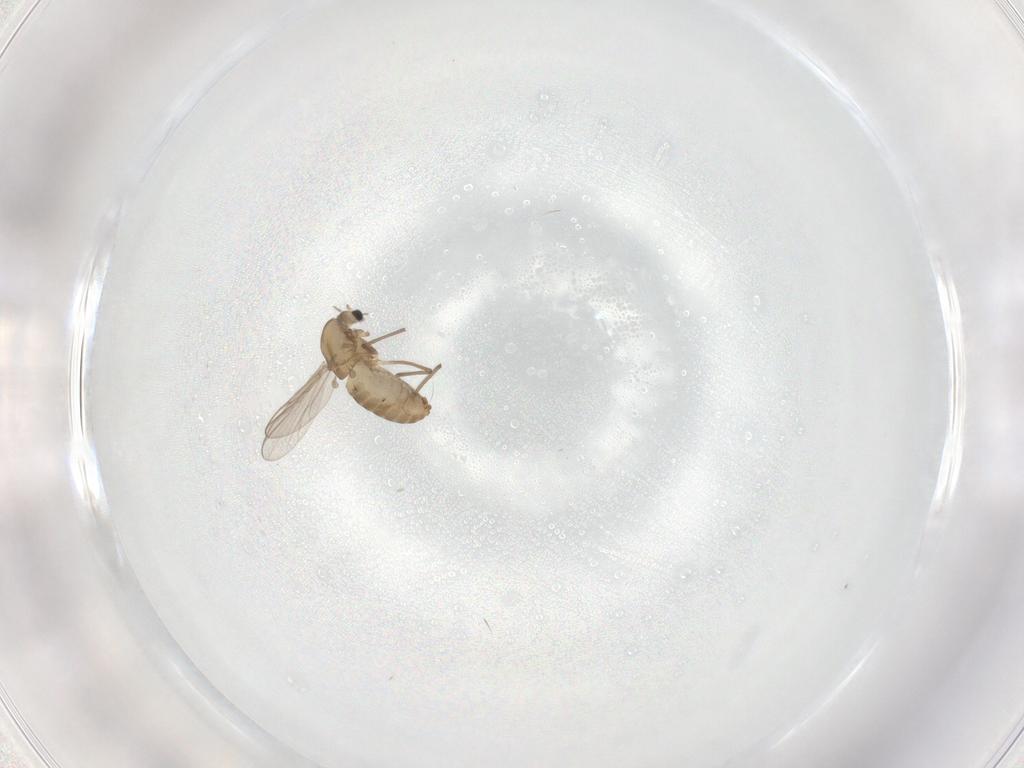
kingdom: Animalia
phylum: Arthropoda
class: Insecta
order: Diptera
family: Chironomidae
